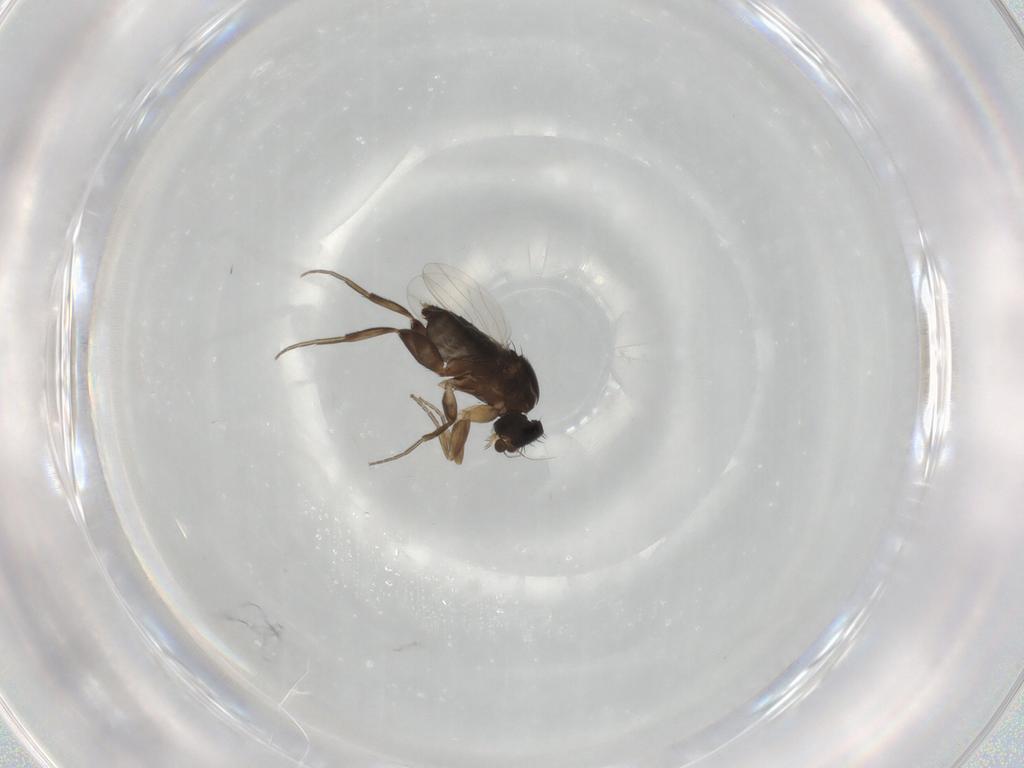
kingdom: Animalia
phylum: Arthropoda
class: Insecta
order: Diptera
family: Phoridae
